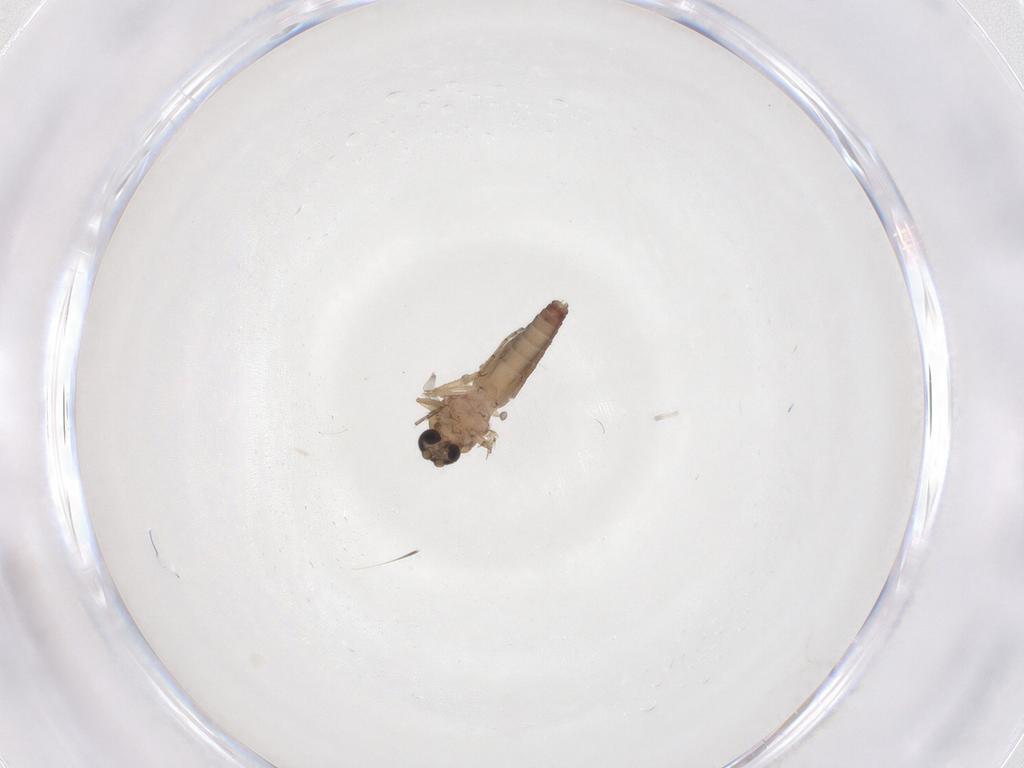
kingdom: Animalia
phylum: Arthropoda
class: Insecta
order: Diptera
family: Ceratopogonidae
